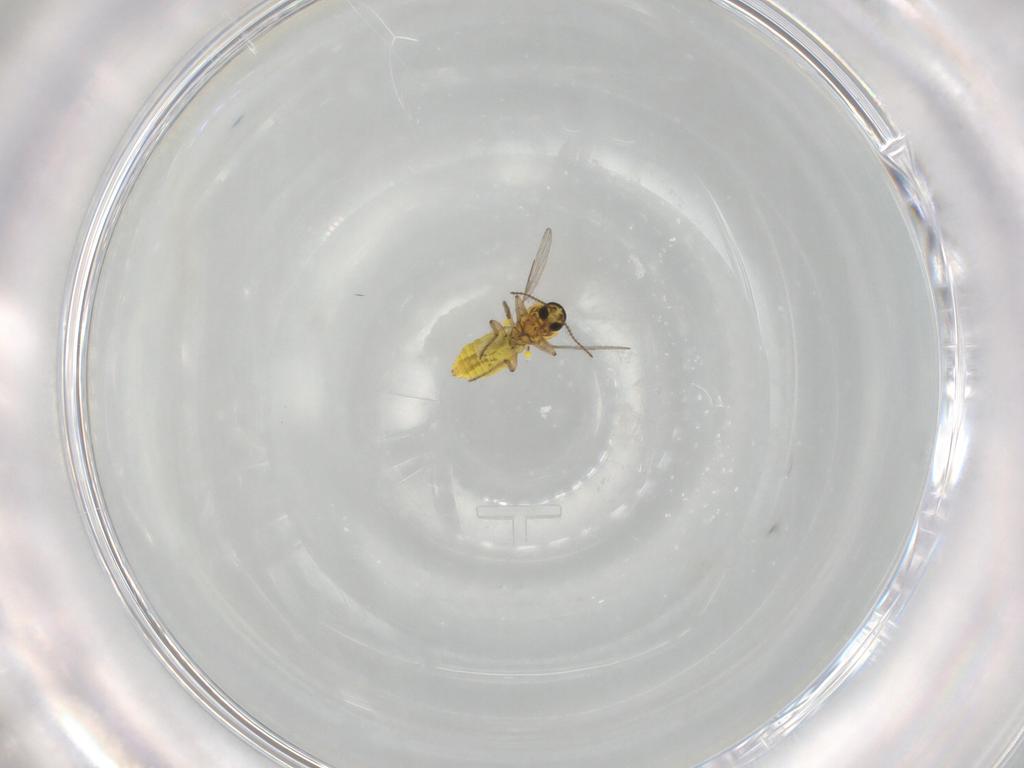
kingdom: Animalia
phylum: Arthropoda
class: Insecta
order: Diptera
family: Ceratopogonidae
